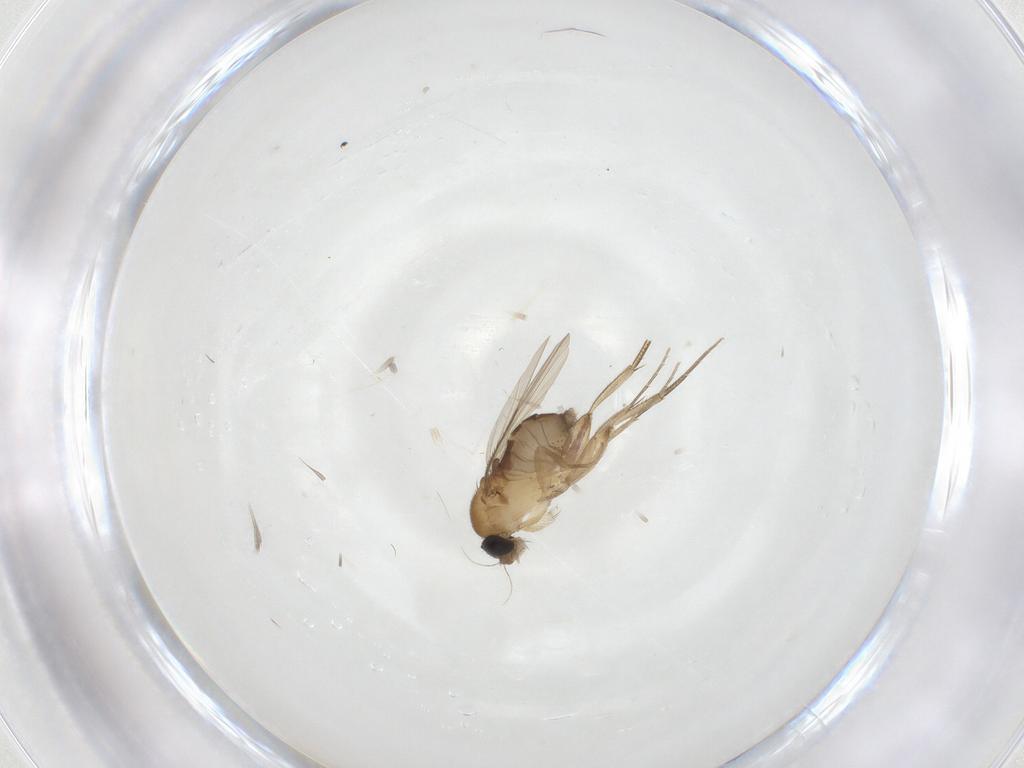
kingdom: Animalia
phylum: Arthropoda
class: Insecta
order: Diptera
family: Phoridae
